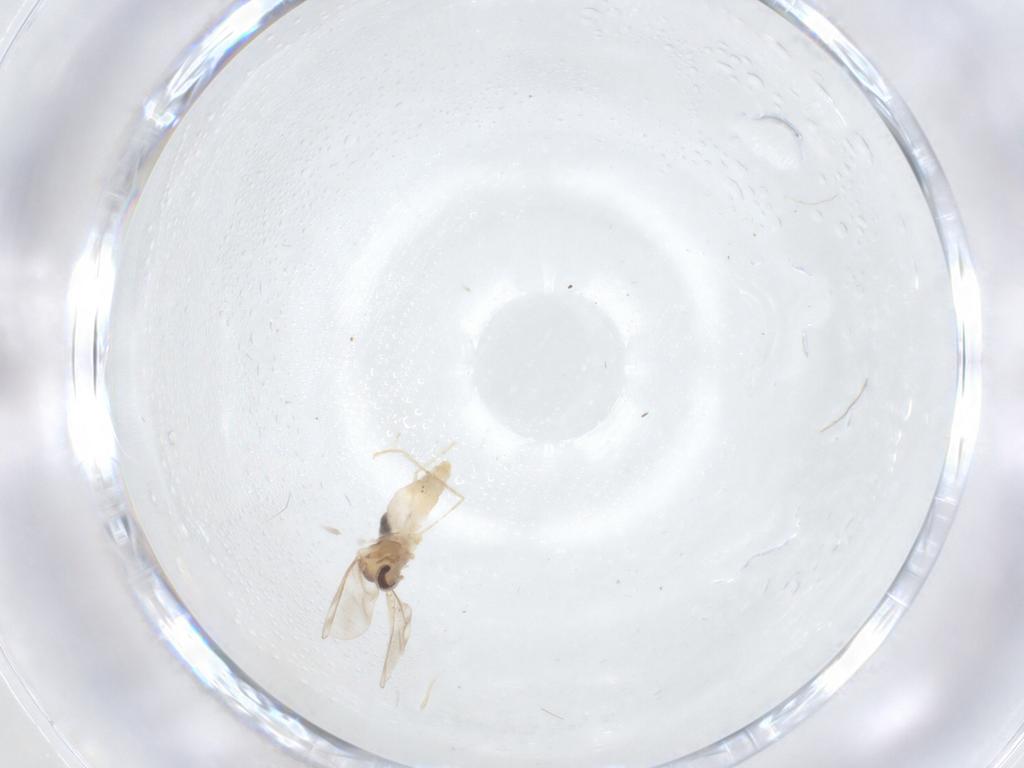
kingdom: Animalia
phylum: Arthropoda
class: Insecta
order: Diptera
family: Cecidomyiidae
